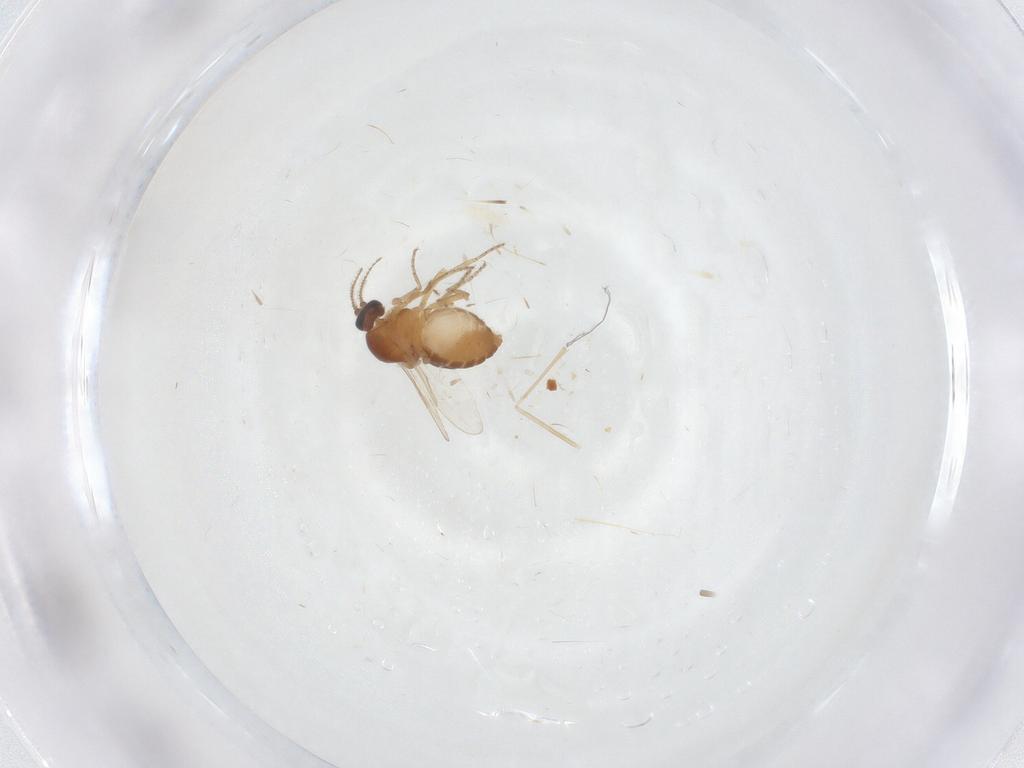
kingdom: Animalia
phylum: Arthropoda
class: Insecta
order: Diptera
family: Ceratopogonidae
